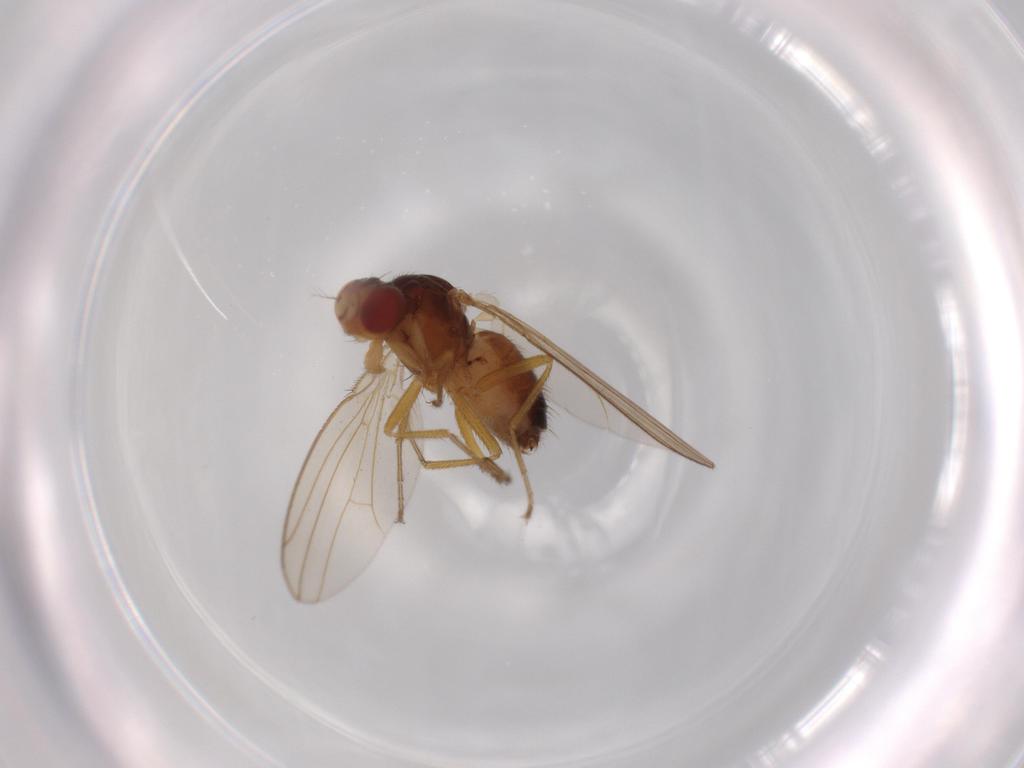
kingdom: Animalia
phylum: Arthropoda
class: Insecta
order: Diptera
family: Drosophilidae
